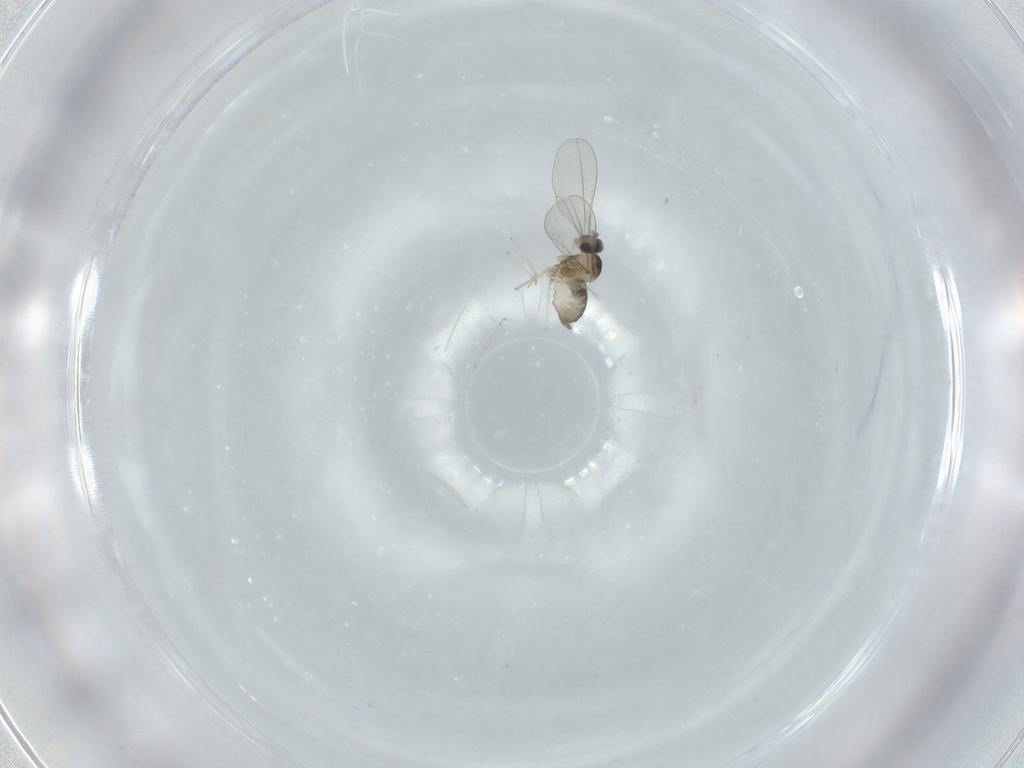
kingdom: Animalia
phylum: Arthropoda
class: Insecta
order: Diptera
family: Cecidomyiidae
